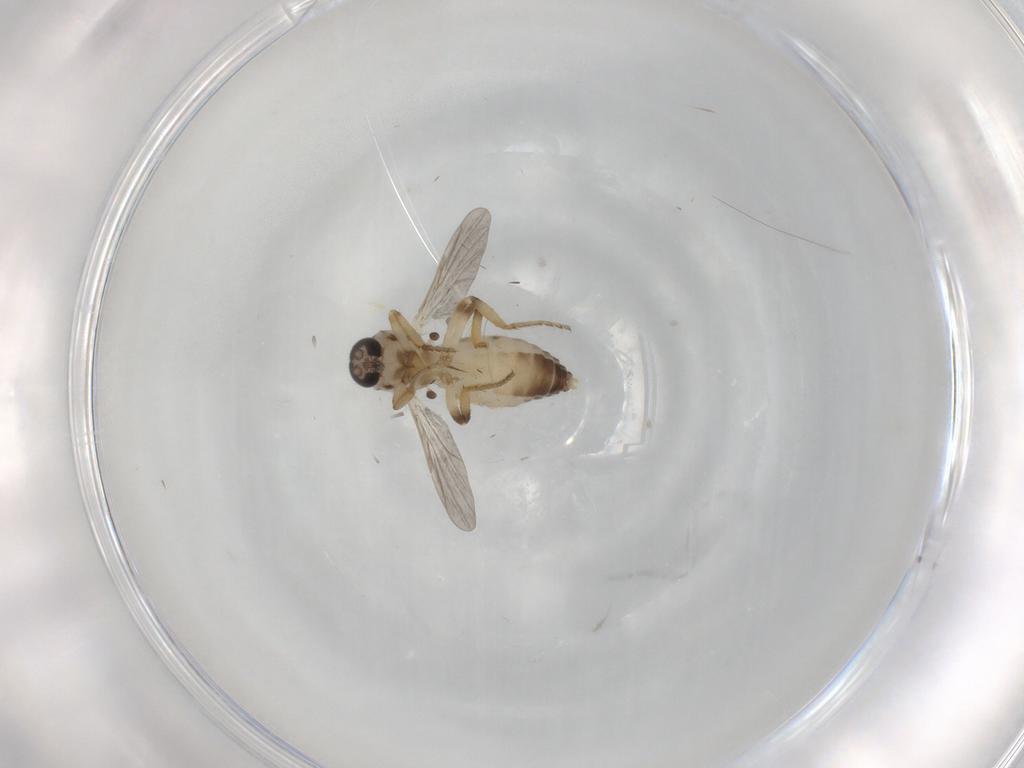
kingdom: Animalia
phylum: Arthropoda
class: Insecta
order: Diptera
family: Ceratopogonidae
